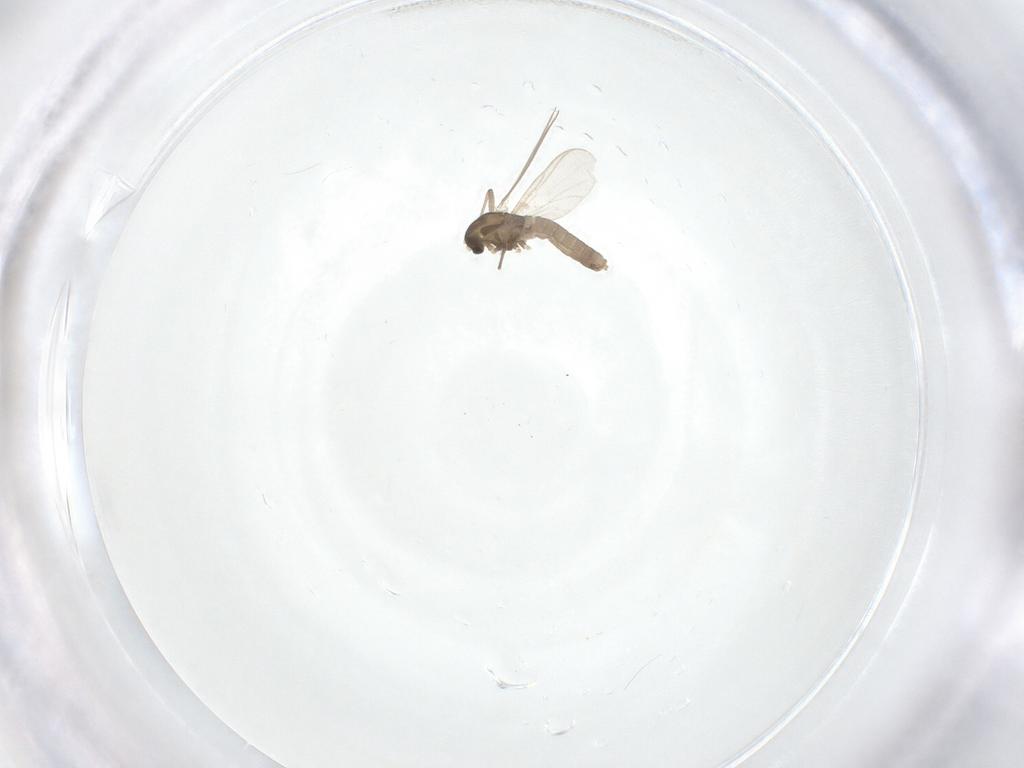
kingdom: Animalia
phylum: Arthropoda
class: Insecta
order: Diptera
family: Chironomidae
